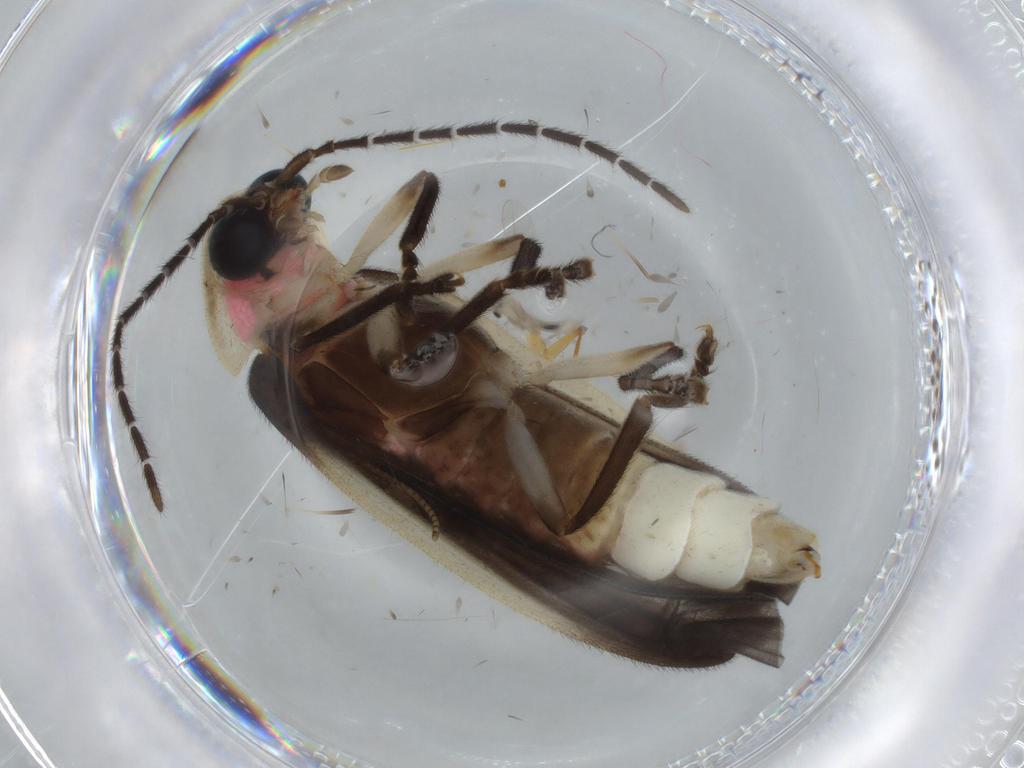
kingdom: Animalia
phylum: Arthropoda
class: Insecta
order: Coleoptera
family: Lampyridae
